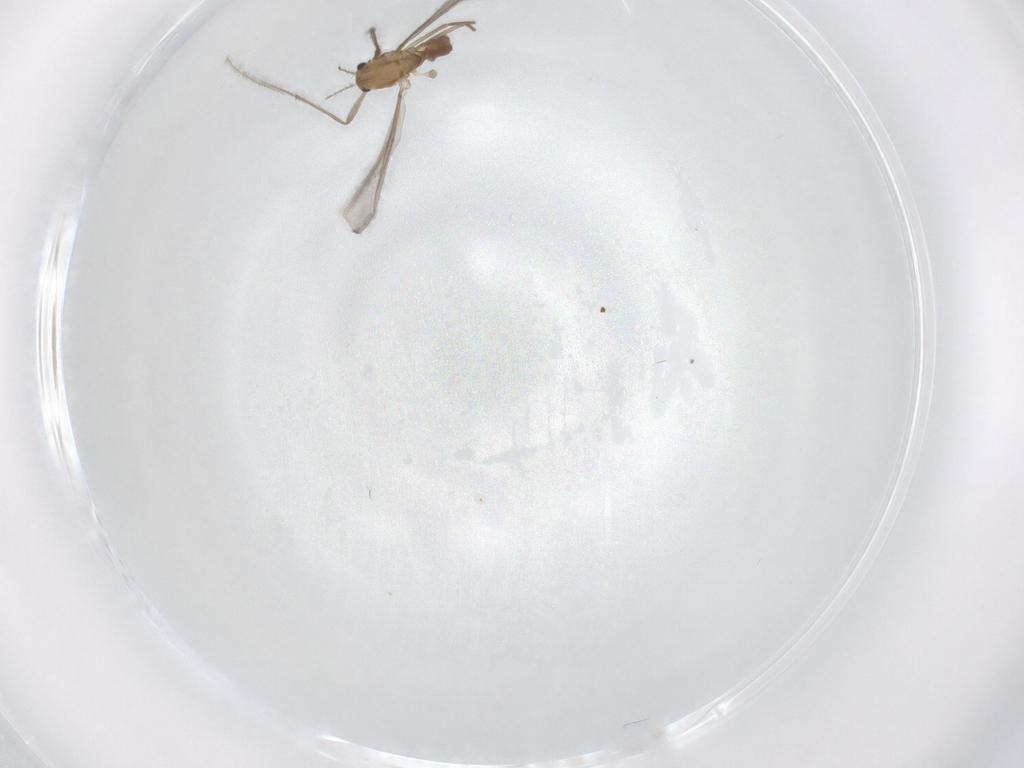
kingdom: Animalia
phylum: Arthropoda
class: Insecta
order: Diptera
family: Chironomidae
